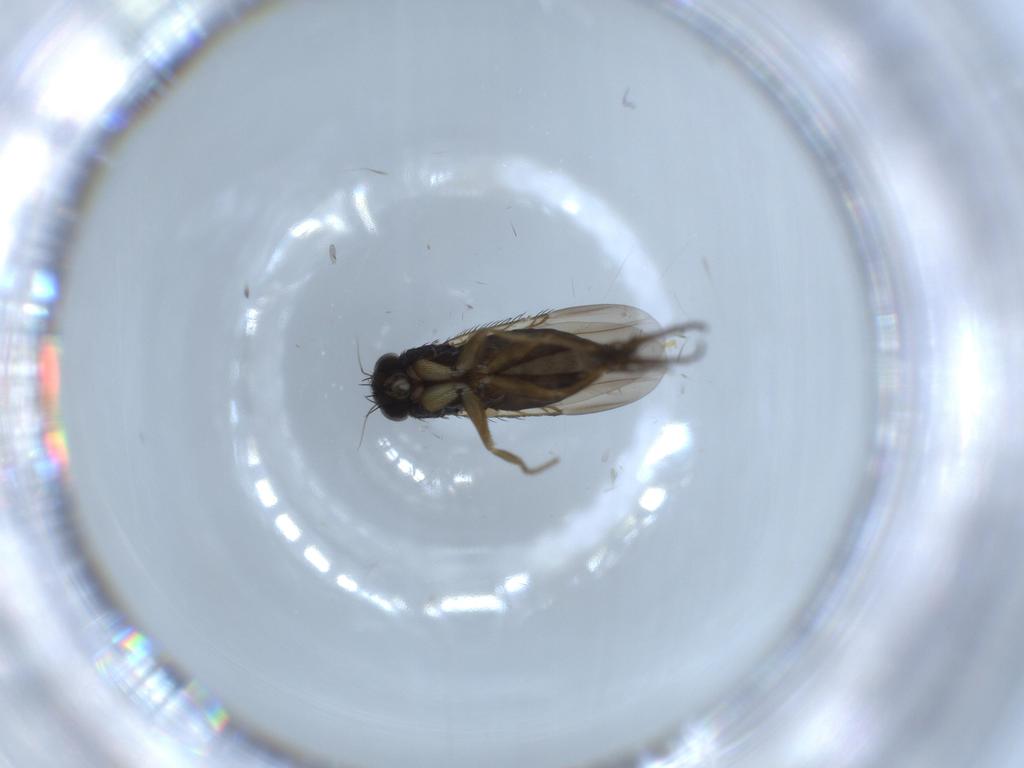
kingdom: Animalia
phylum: Arthropoda
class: Insecta
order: Diptera
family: Phoridae
